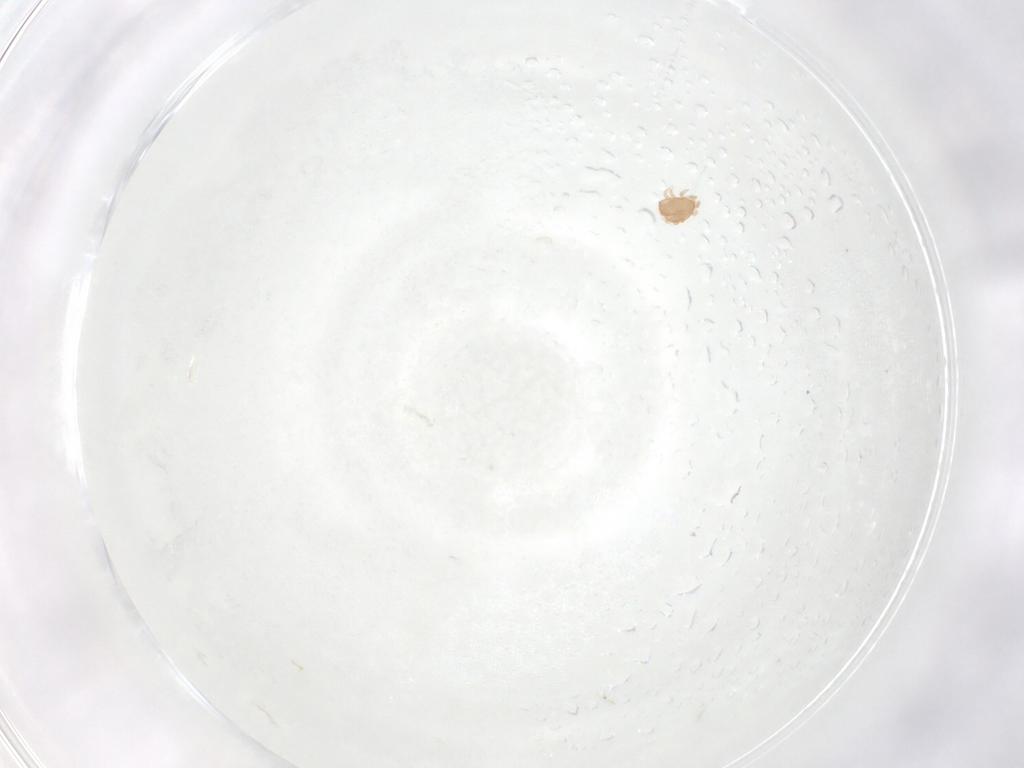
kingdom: Animalia
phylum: Arthropoda
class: Arachnida
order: Mesostigmata
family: Ascidae
